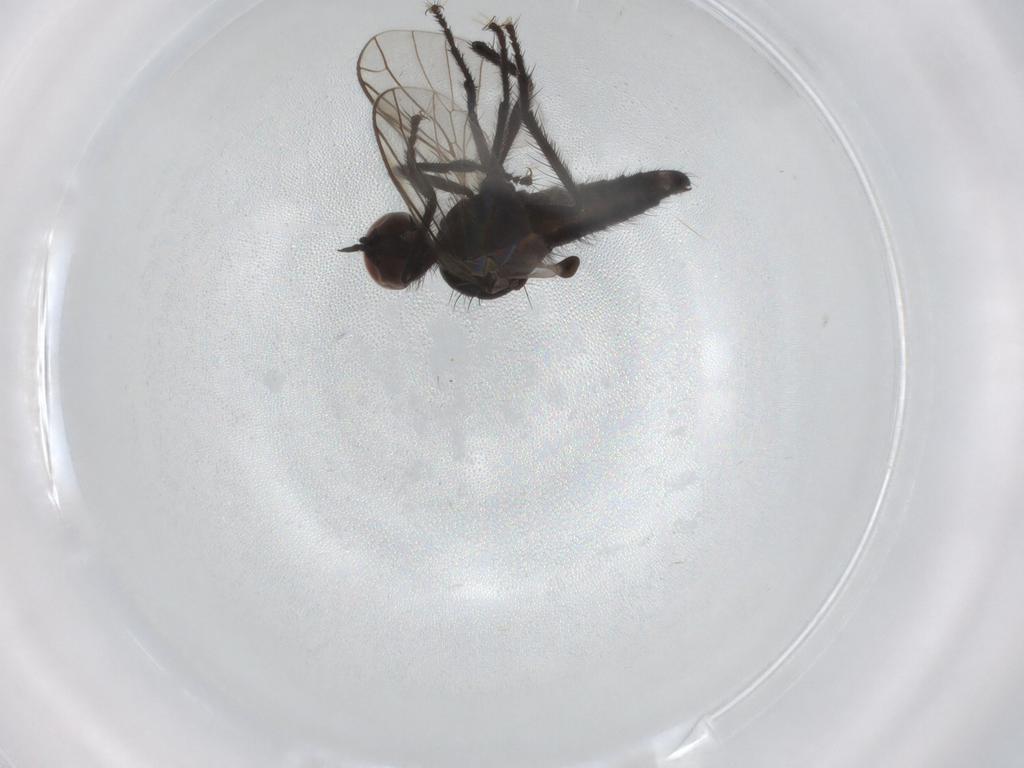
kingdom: Animalia
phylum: Arthropoda
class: Insecta
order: Diptera
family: Empididae
